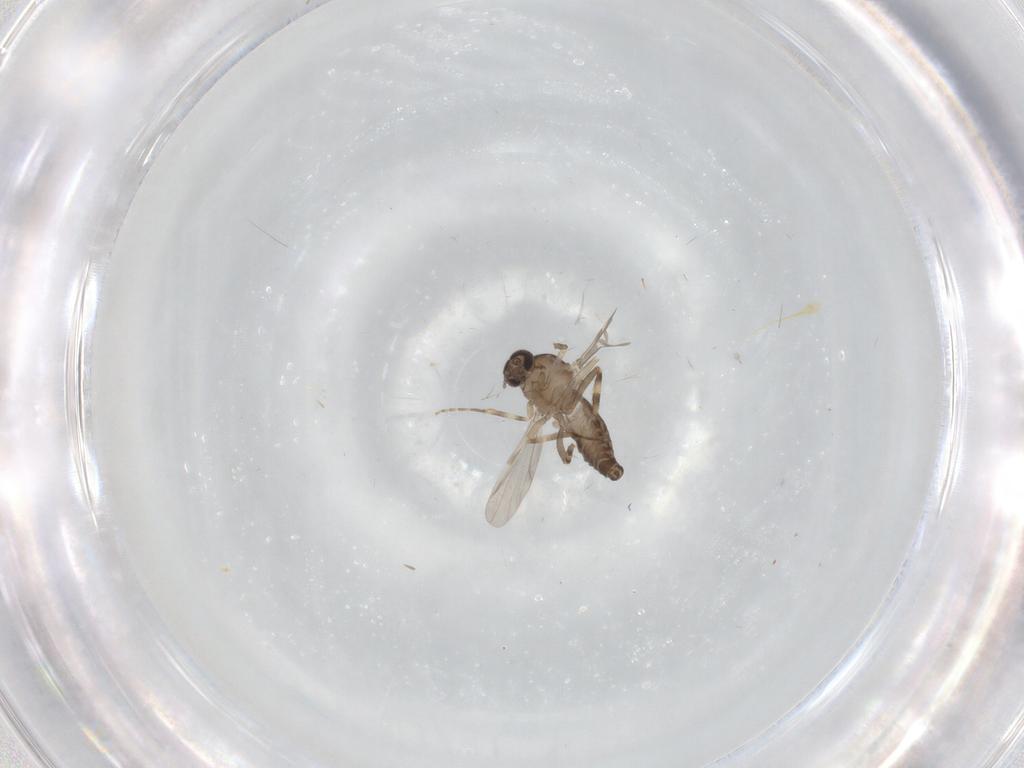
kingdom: Animalia
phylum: Arthropoda
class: Insecta
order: Diptera
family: Ceratopogonidae
